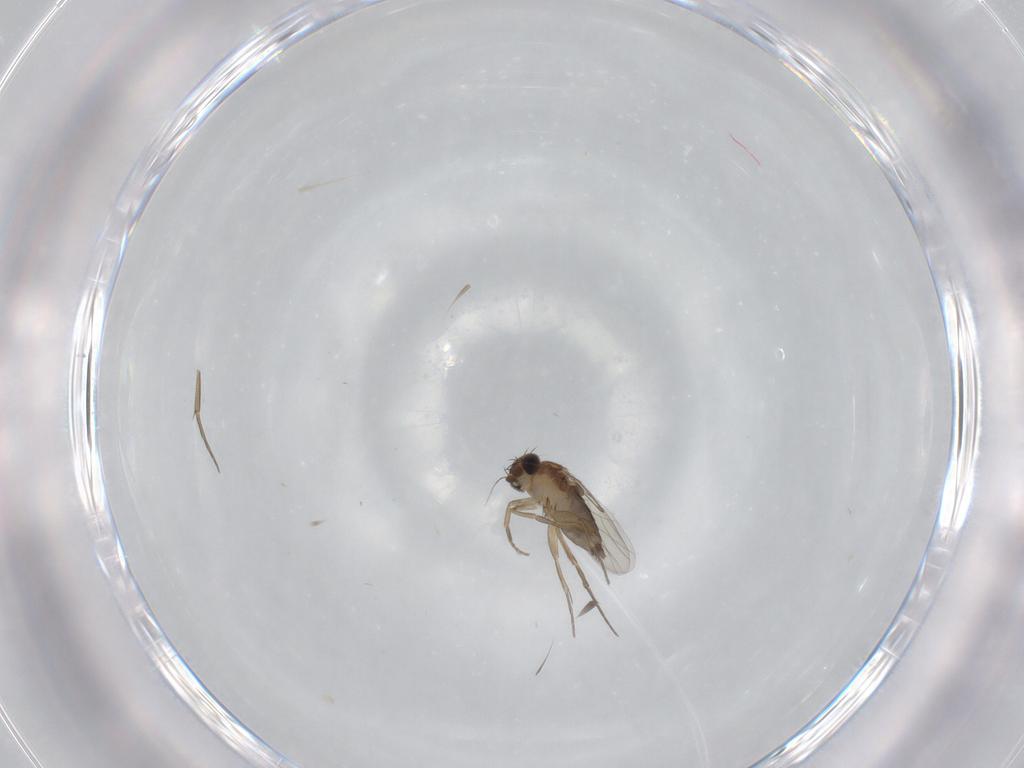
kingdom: Animalia
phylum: Arthropoda
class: Insecta
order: Diptera
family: Phoridae
